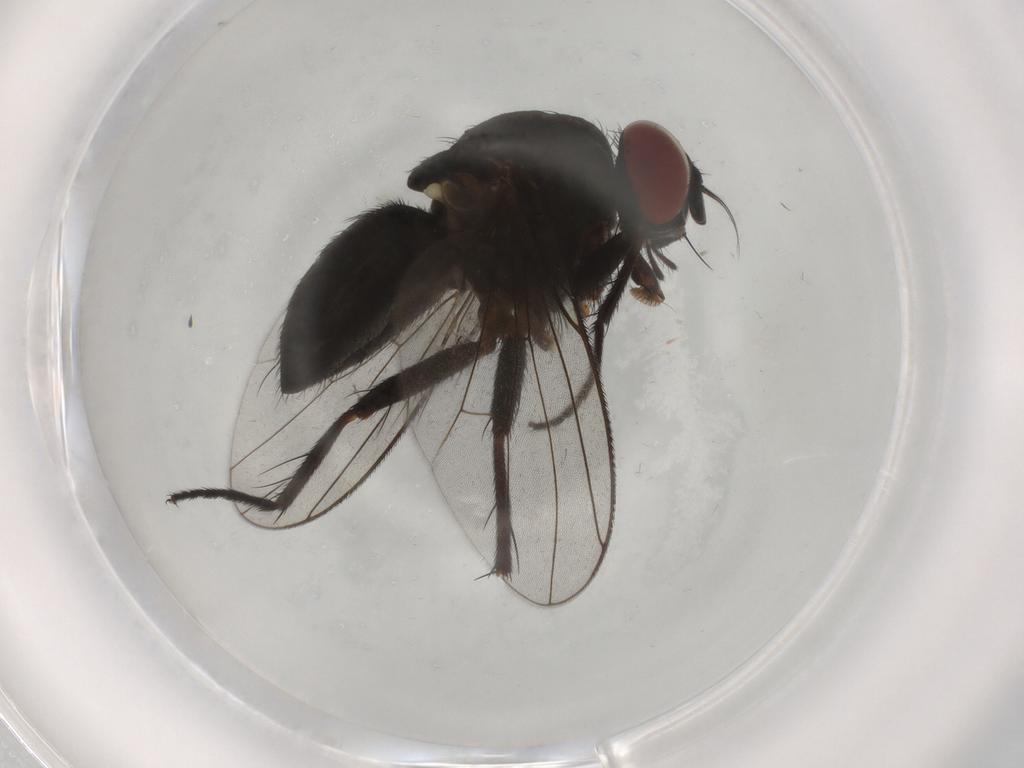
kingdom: Animalia
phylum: Arthropoda
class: Insecta
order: Diptera
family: Muscidae
